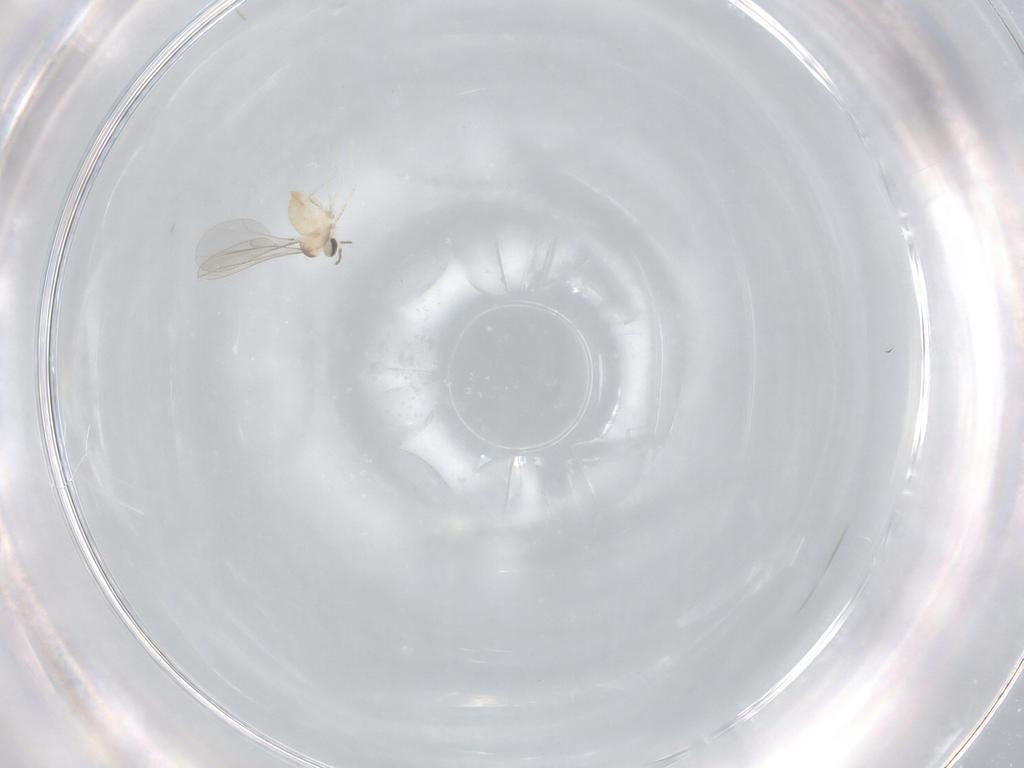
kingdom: Animalia
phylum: Arthropoda
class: Insecta
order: Diptera
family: Cecidomyiidae
